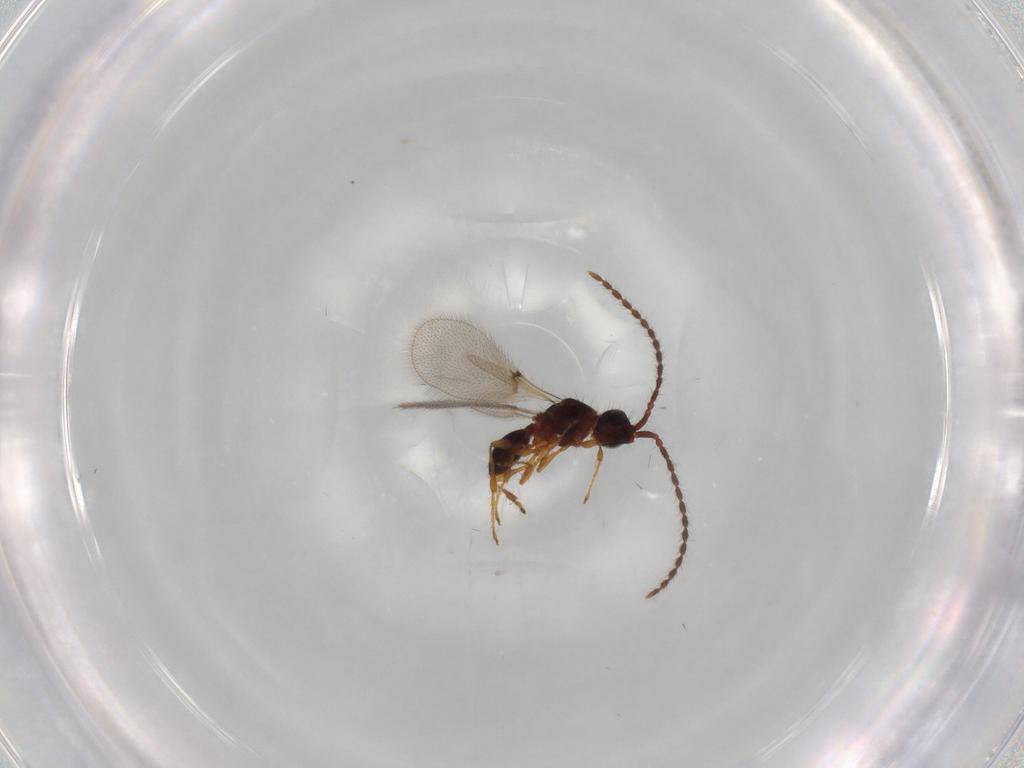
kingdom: Animalia
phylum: Arthropoda
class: Insecta
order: Hymenoptera
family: Diapriidae
